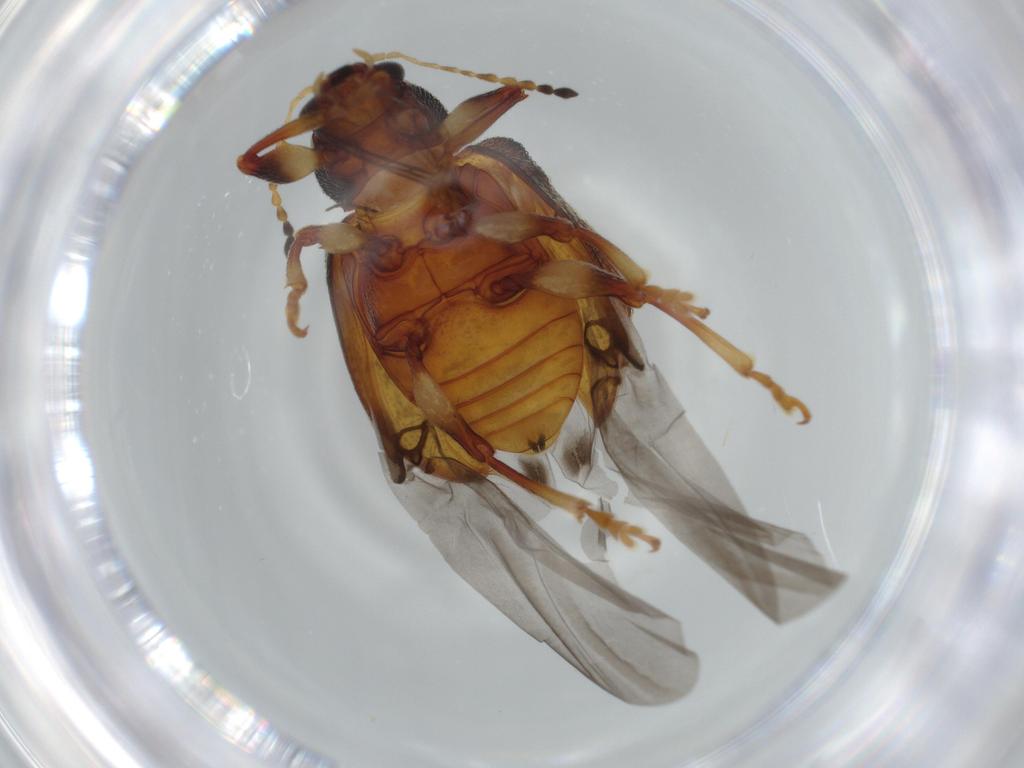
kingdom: Animalia
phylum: Arthropoda
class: Insecta
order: Coleoptera
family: Chrysomelidae
